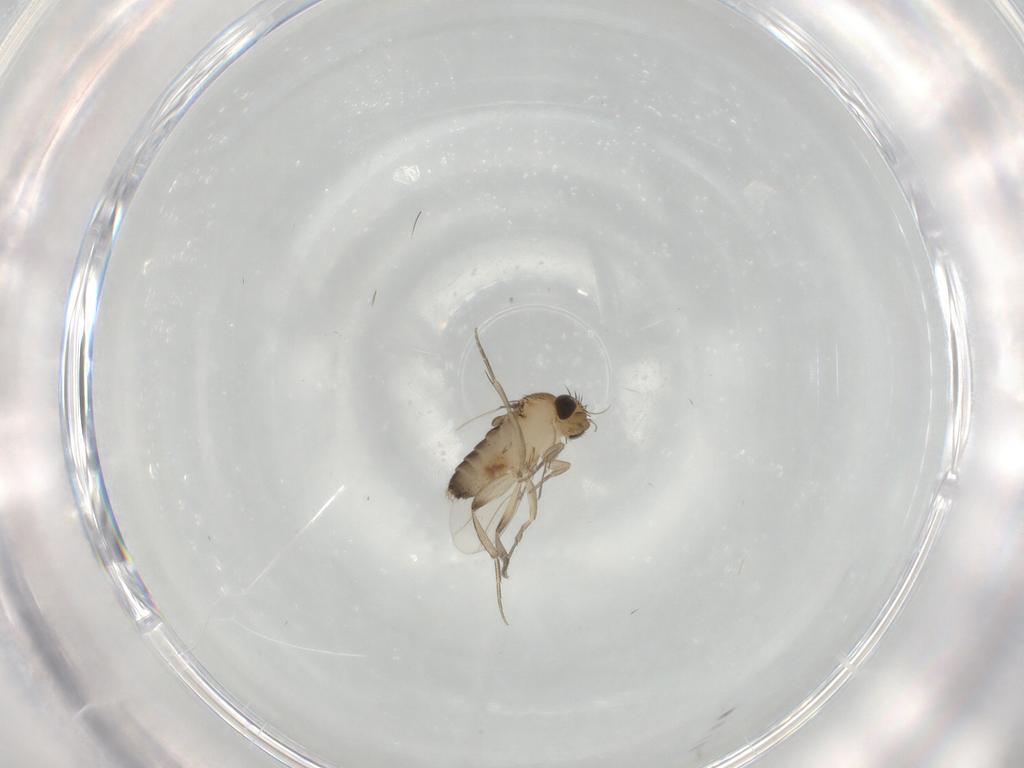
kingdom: Animalia
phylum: Arthropoda
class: Insecta
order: Diptera
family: Phoridae
